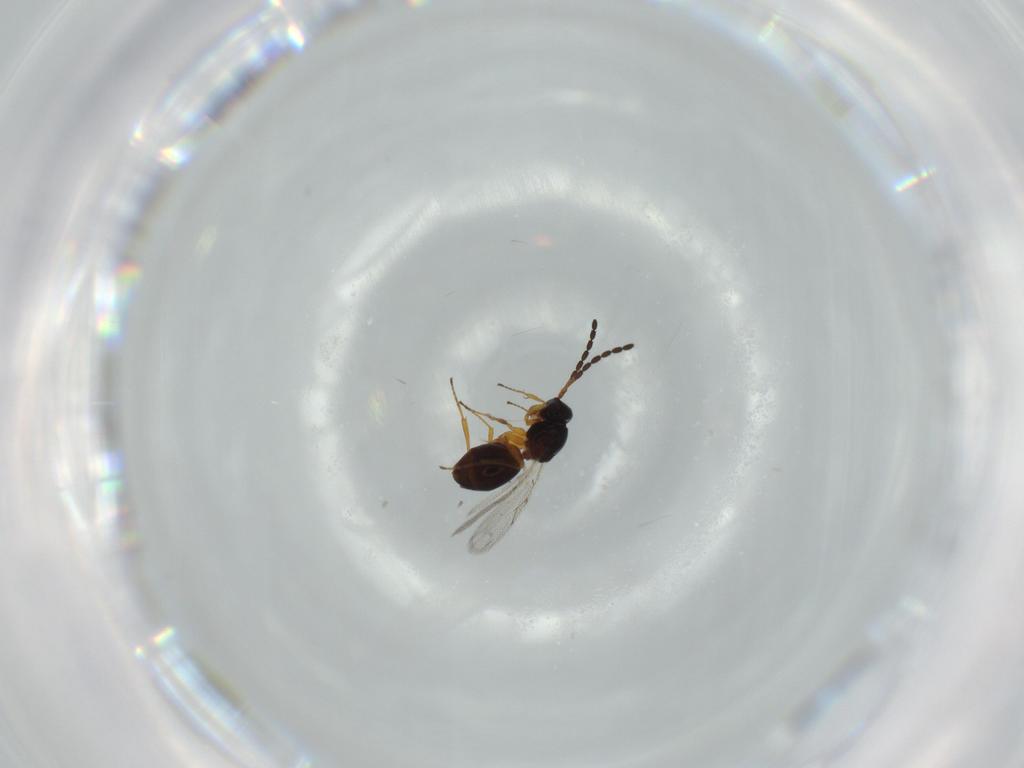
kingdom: Animalia
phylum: Arthropoda
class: Insecta
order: Hymenoptera
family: Figitidae
